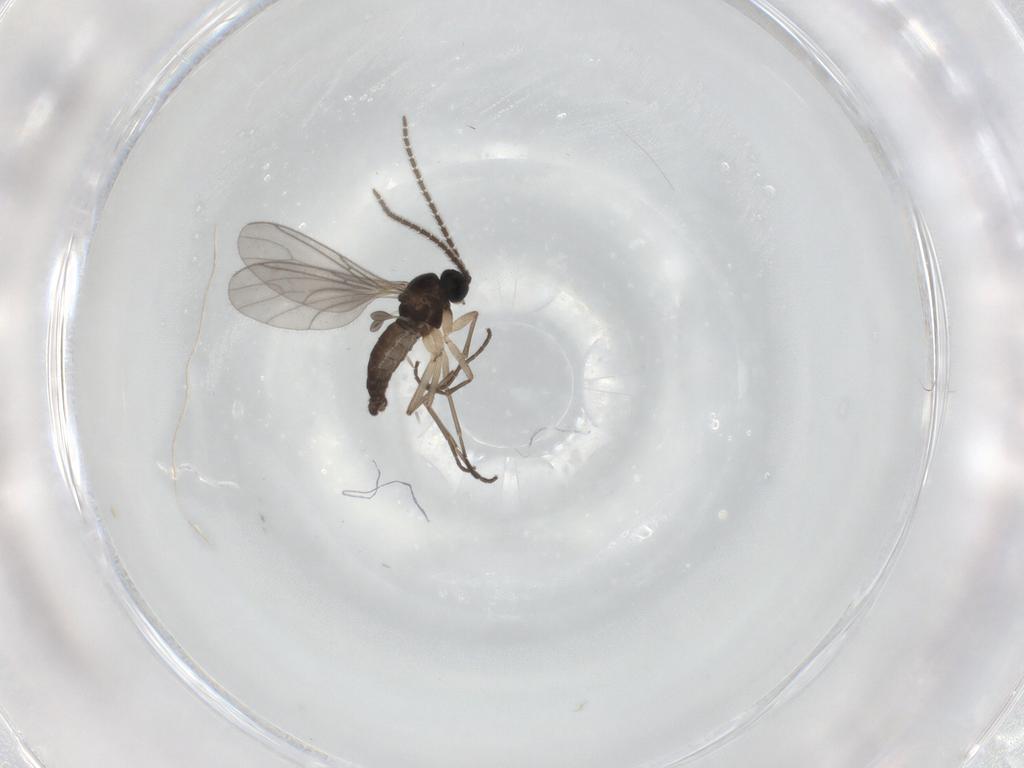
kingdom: Animalia
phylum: Arthropoda
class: Insecta
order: Diptera
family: Sciaridae
